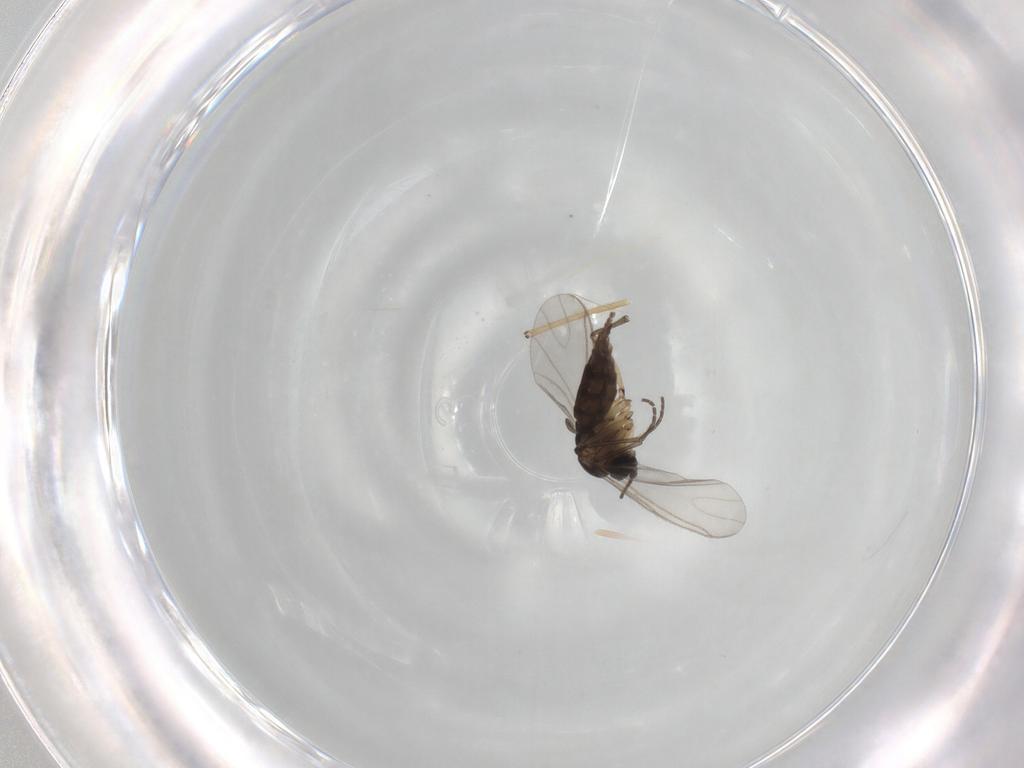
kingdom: Animalia
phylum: Arthropoda
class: Insecta
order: Diptera
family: Sciaridae
